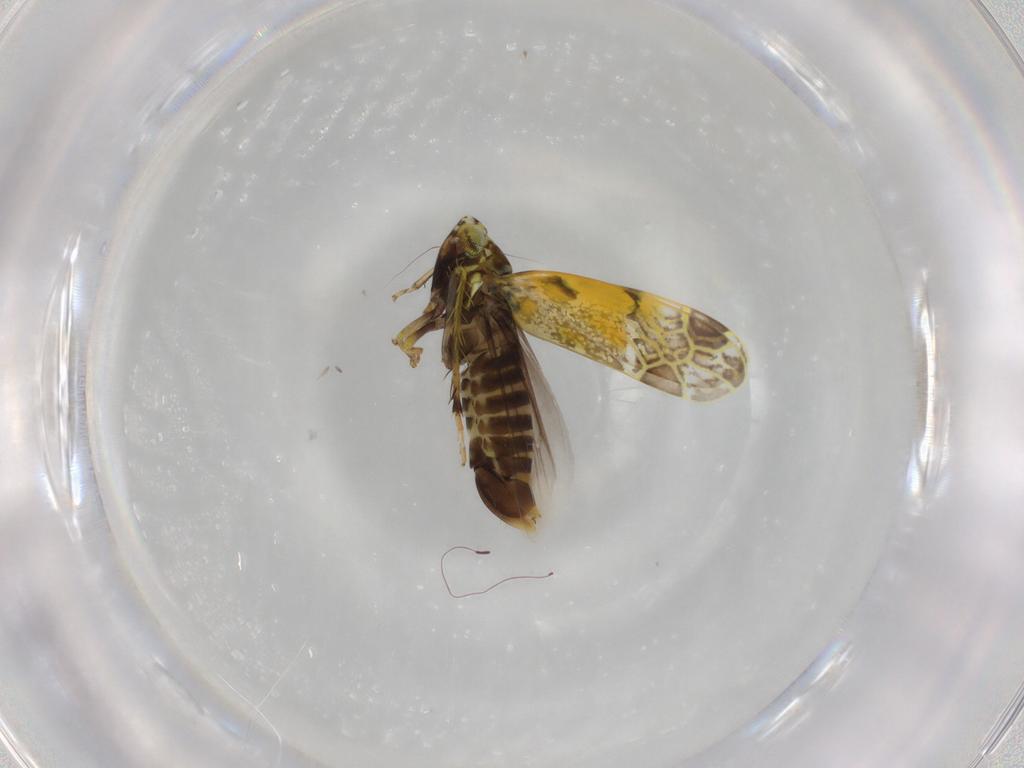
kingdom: Animalia
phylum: Arthropoda
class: Insecta
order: Hemiptera
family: Cicadellidae
